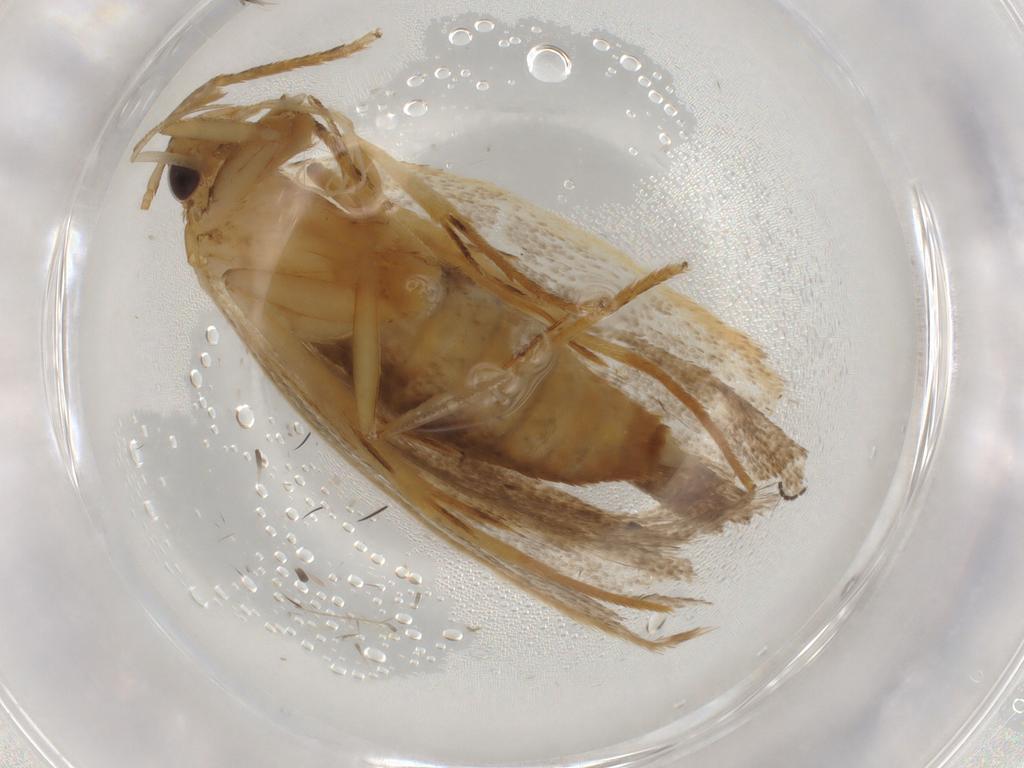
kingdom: Animalia
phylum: Arthropoda
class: Insecta
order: Lepidoptera
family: Lecithoceridae
